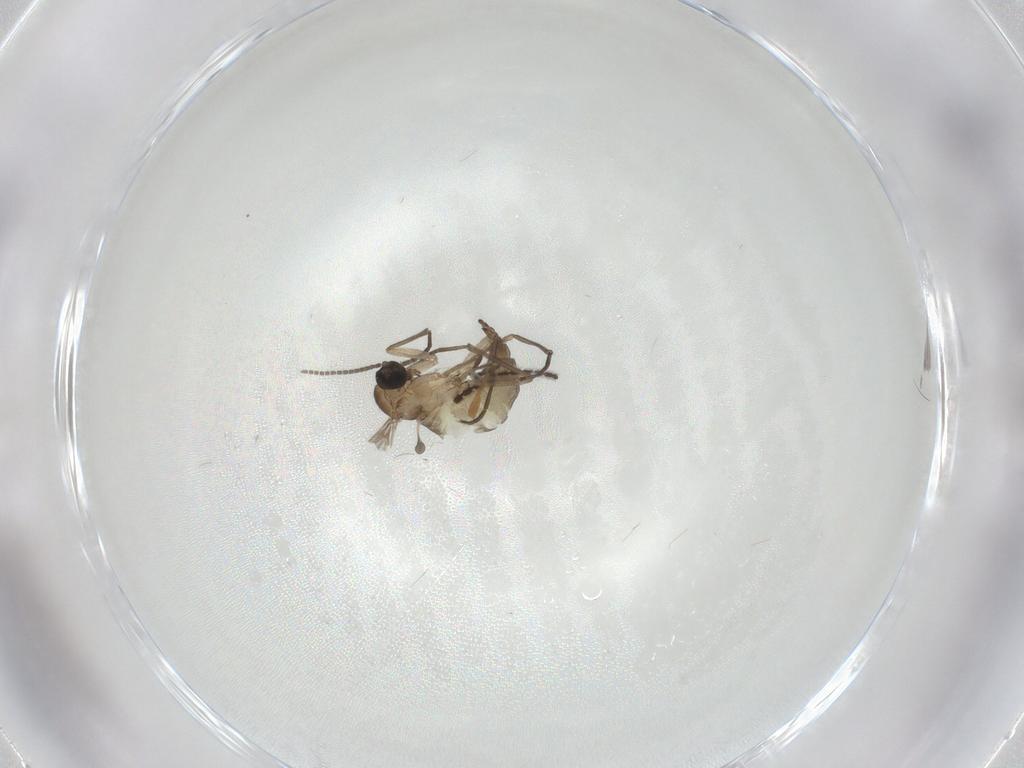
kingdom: Animalia
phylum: Arthropoda
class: Insecta
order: Diptera
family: Sciaridae
